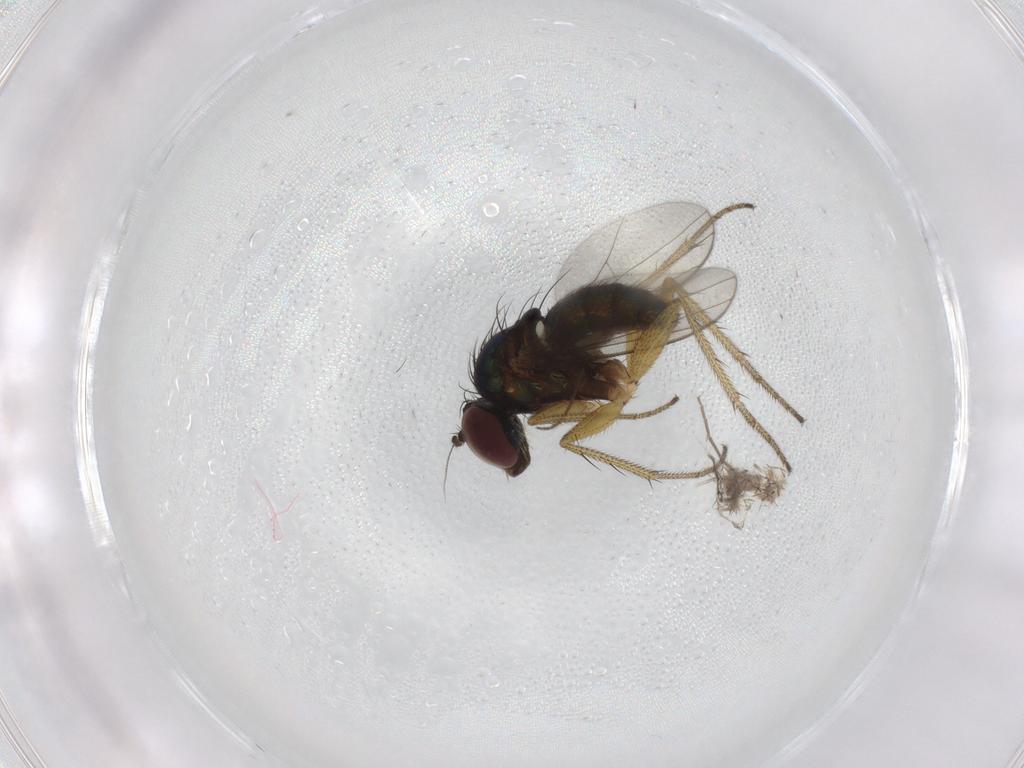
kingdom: Animalia
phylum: Arthropoda
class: Insecta
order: Diptera
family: Chironomidae
